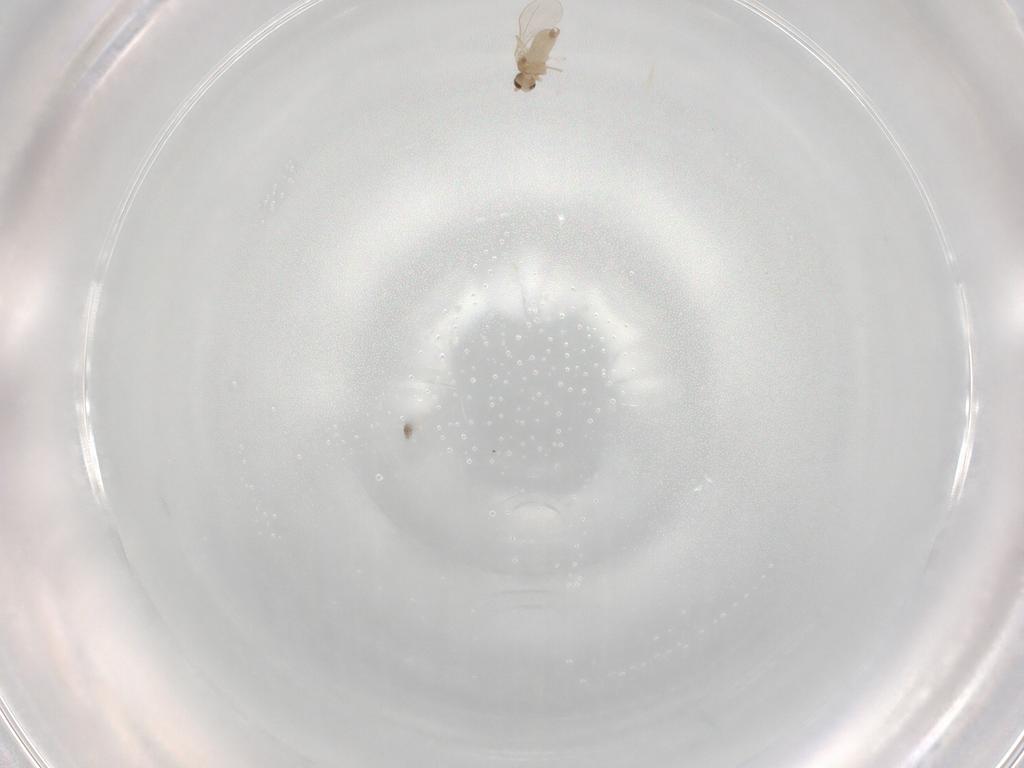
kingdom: Animalia
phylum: Arthropoda
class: Insecta
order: Diptera
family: Cecidomyiidae
